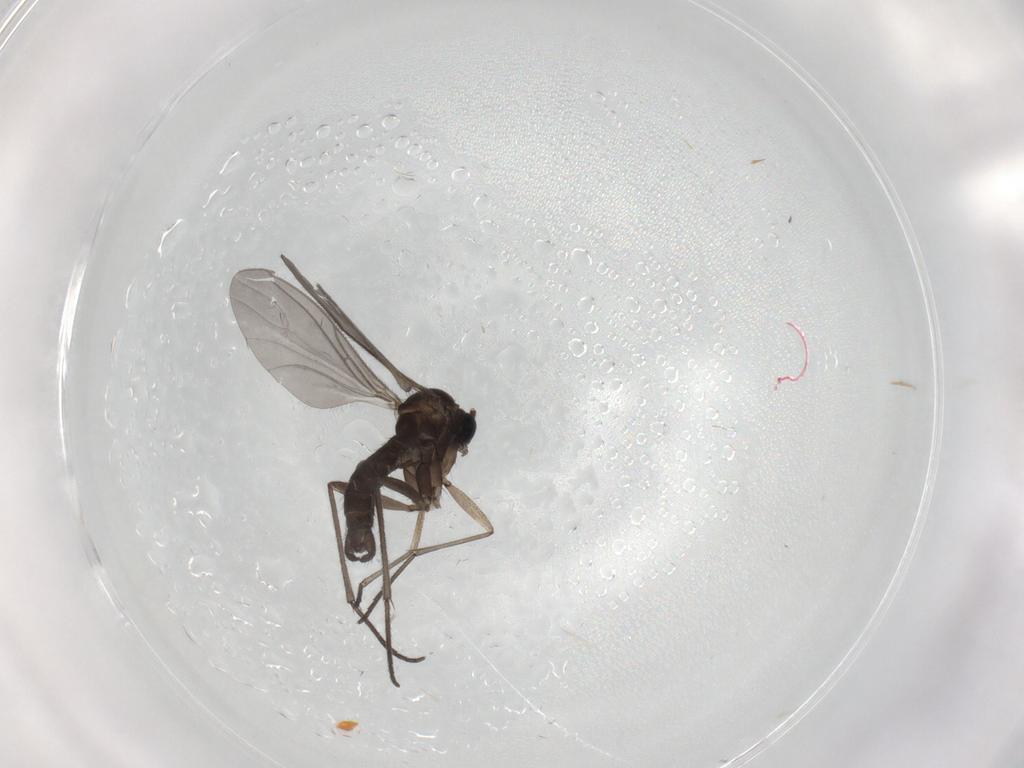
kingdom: Animalia
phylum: Arthropoda
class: Insecta
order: Diptera
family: Sciaridae
